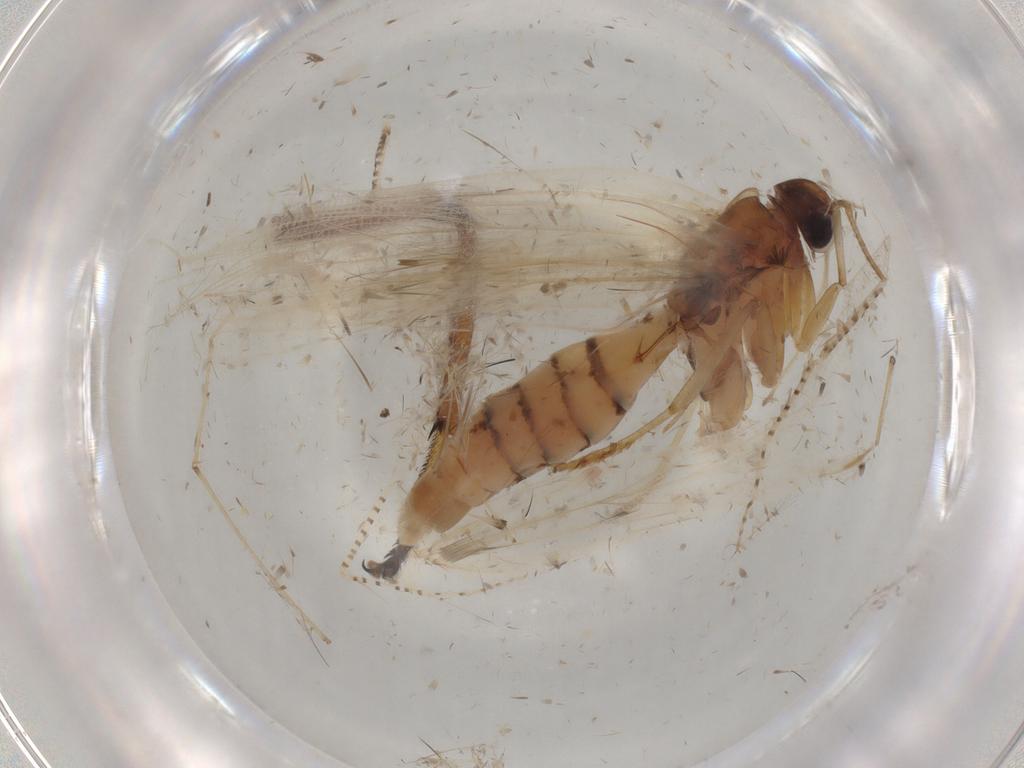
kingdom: Animalia
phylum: Arthropoda
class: Insecta
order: Lepidoptera
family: Gelechiidae
